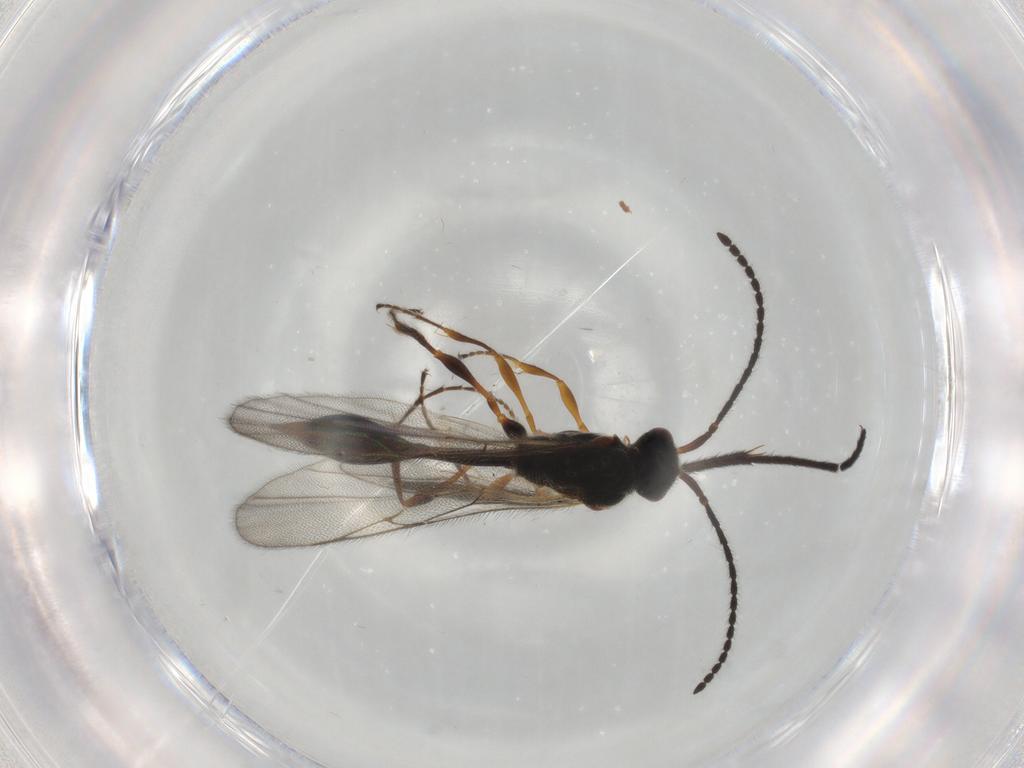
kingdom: Animalia
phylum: Arthropoda
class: Insecta
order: Hymenoptera
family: Diapriidae
